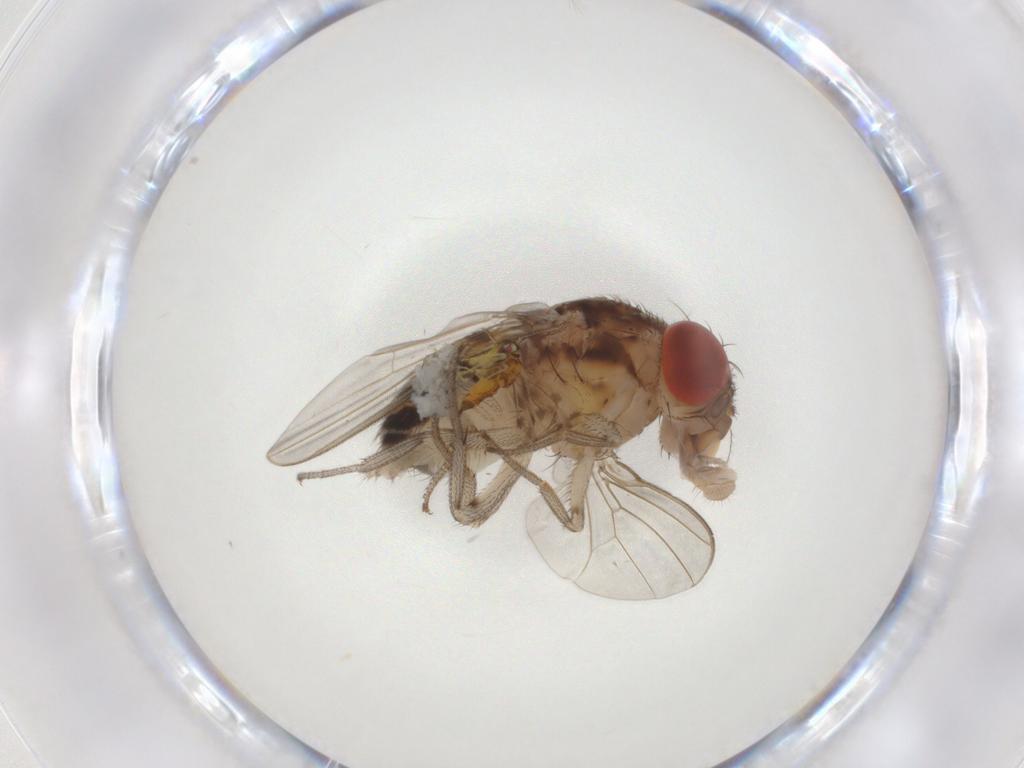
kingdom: Animalia
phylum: Arthropoda
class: Insecta
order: Diptera
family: Drosophilidae
